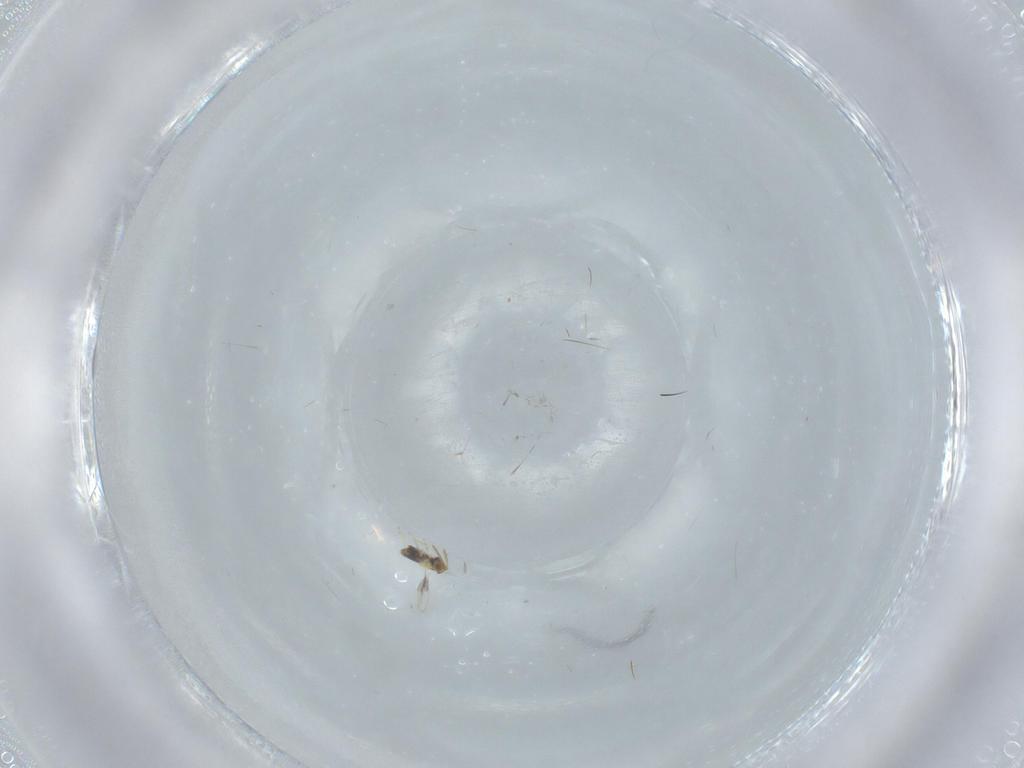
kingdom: Animalia
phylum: Arthropoda
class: Insecta
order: Hymenoptera
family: Aphelinidae
